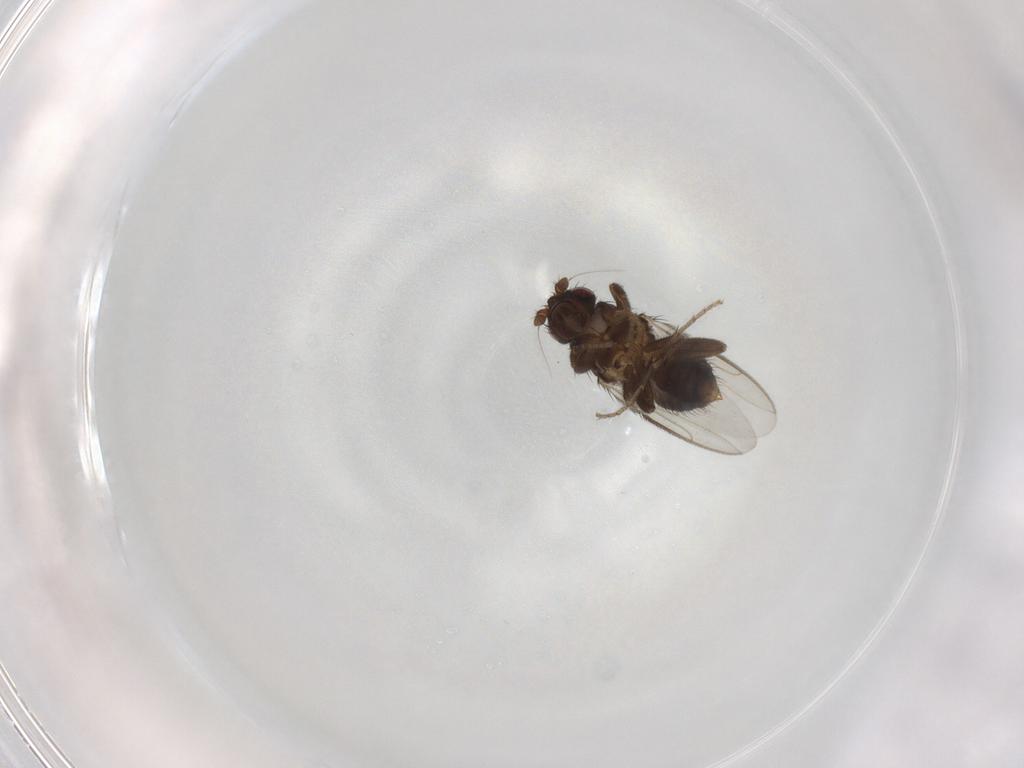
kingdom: Animalia
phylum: Arthropoda
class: Insecta
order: Diptera
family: Sphaeroceridae
